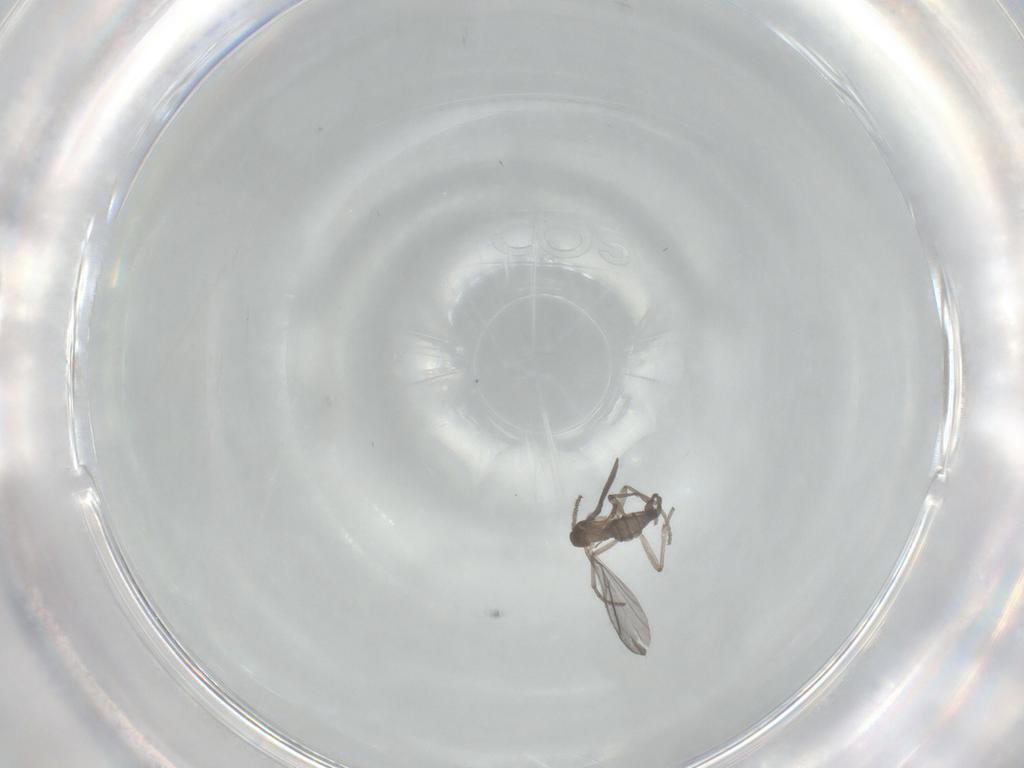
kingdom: Animalia
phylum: Arthropoda
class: Insecta
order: Diptera
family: Sciaridae
